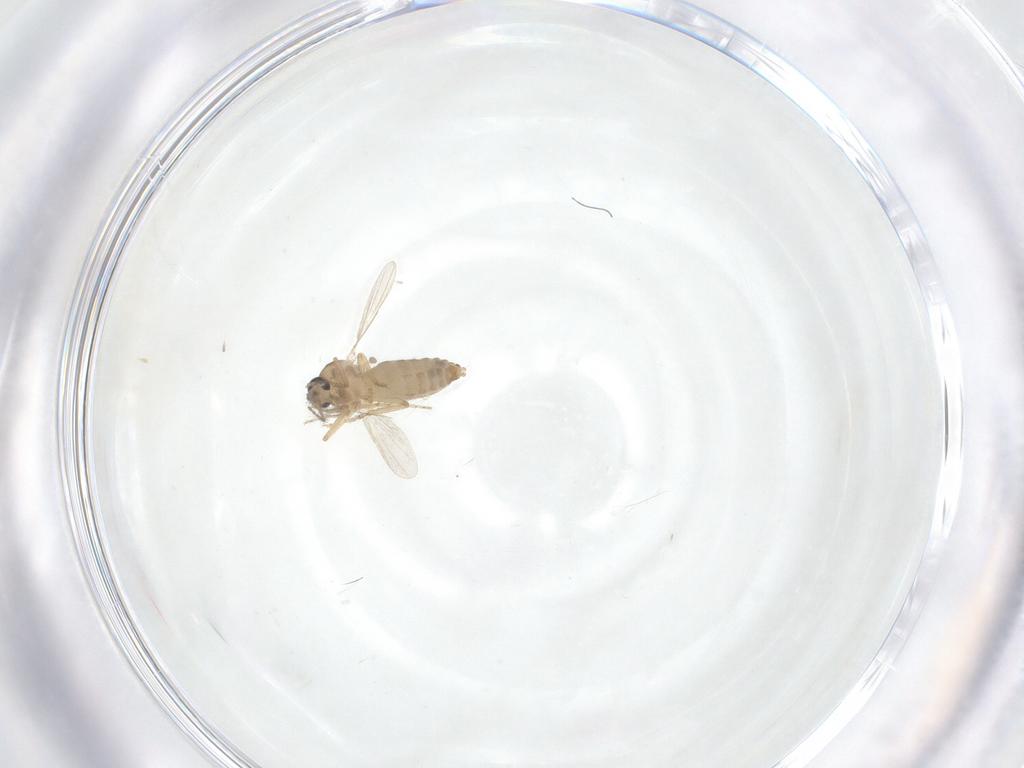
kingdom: Animalia
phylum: Arthropoda
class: Insecta
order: Diptera
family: Ceratopogonidae
